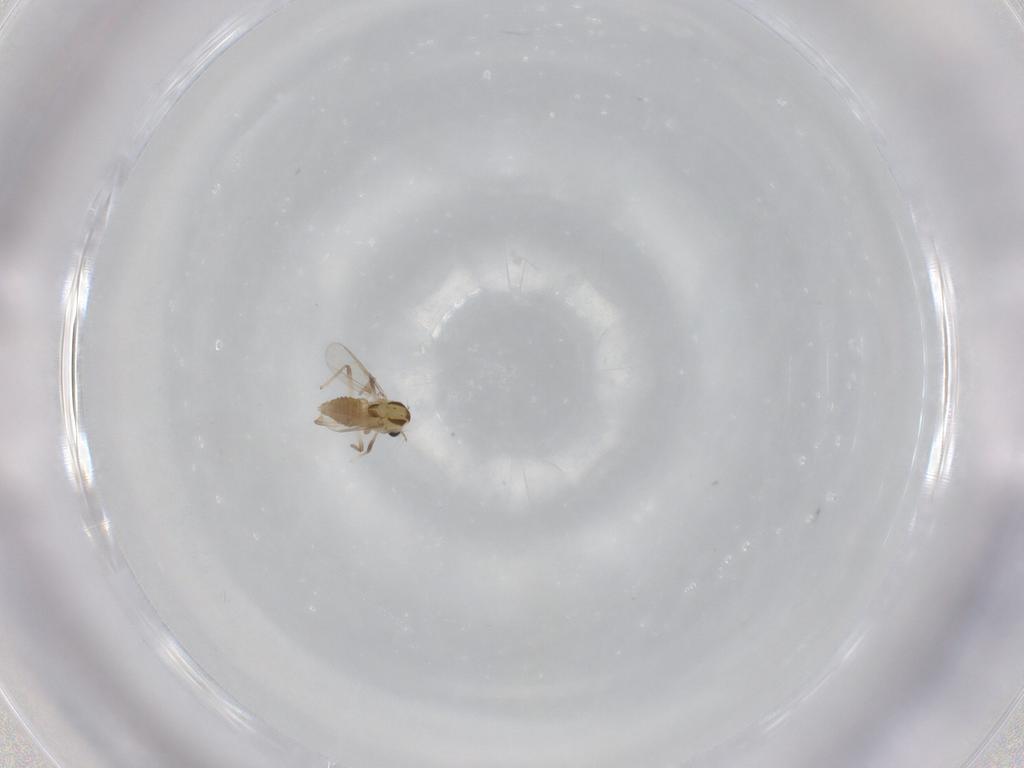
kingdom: Animalia
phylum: Arthropoda
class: Insecta
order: Diptera
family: Chironomidae
